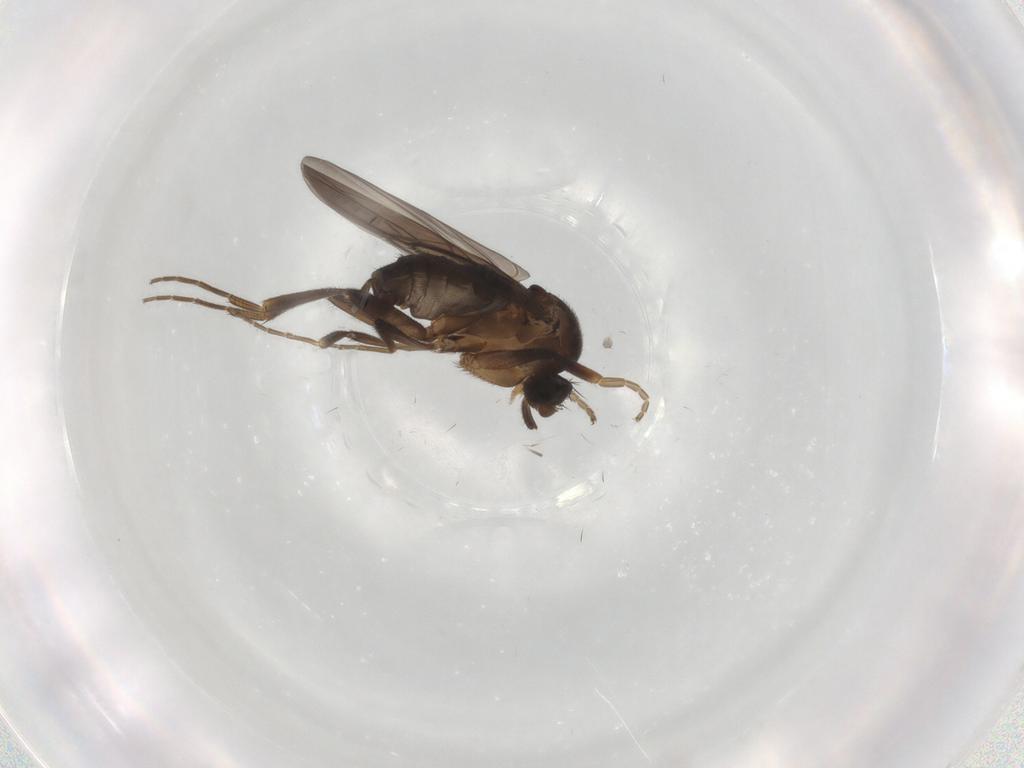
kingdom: Animalia
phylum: Arthropoda
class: Insecta
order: Diptera
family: Phoridae
